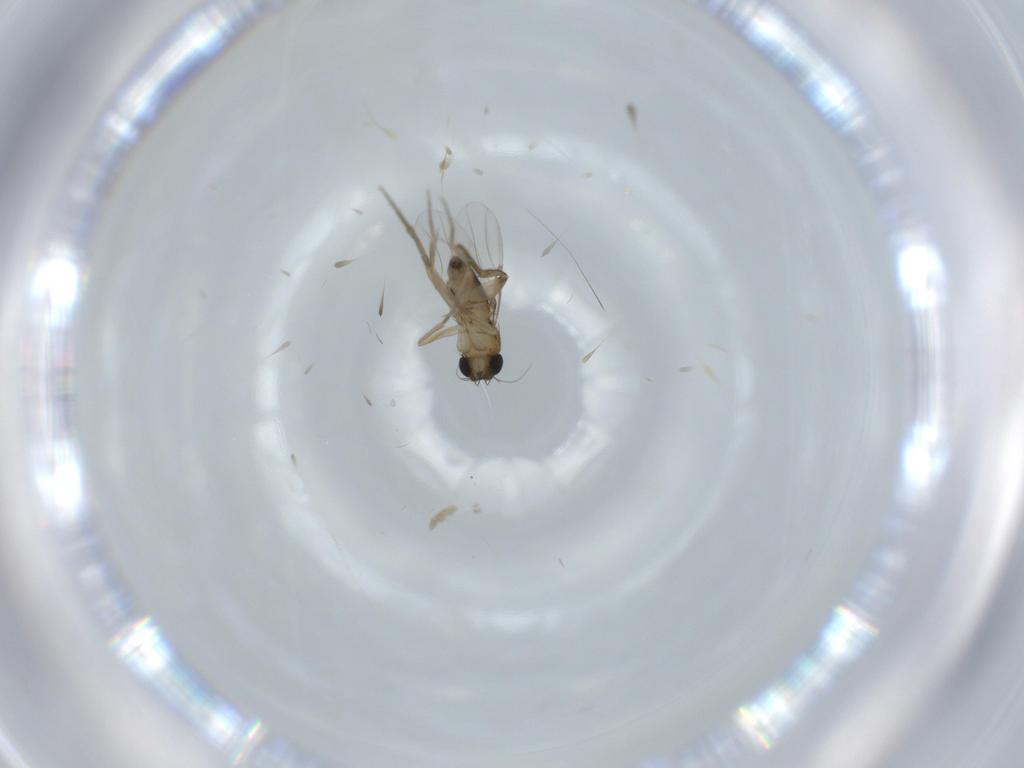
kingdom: Animalia
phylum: Arthropoda
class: Insecta
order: Diptera
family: Phoridae
